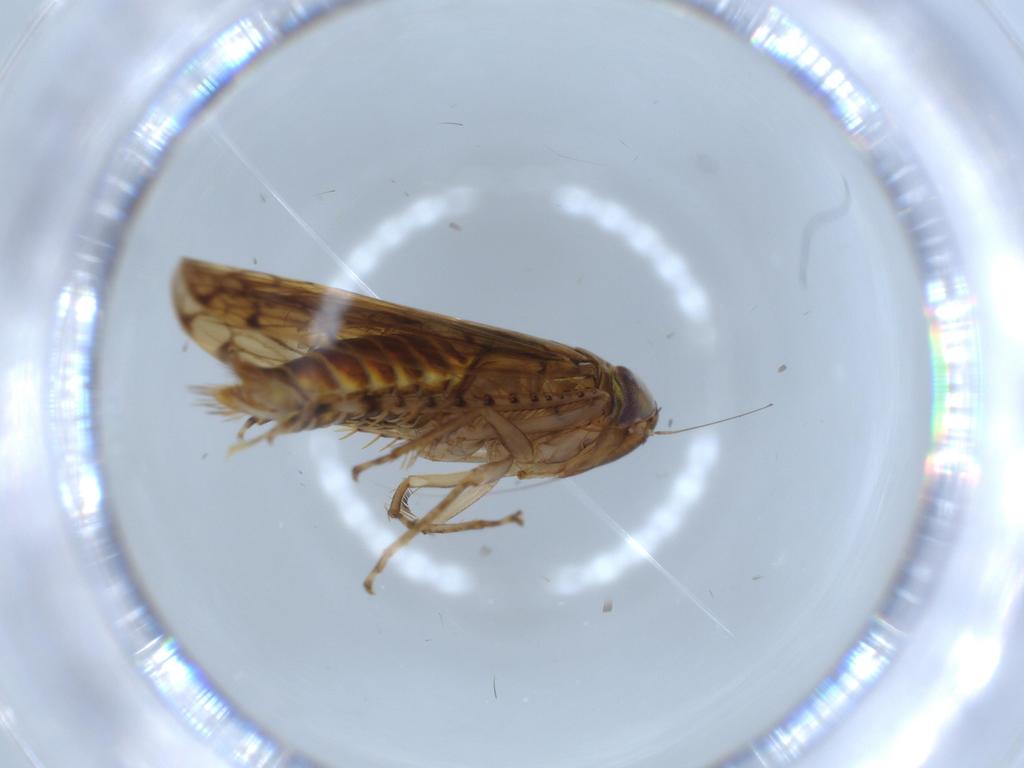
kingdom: Animalia
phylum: Arthropoda
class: Insecta
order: Hemiptera
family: Cicadellidae
